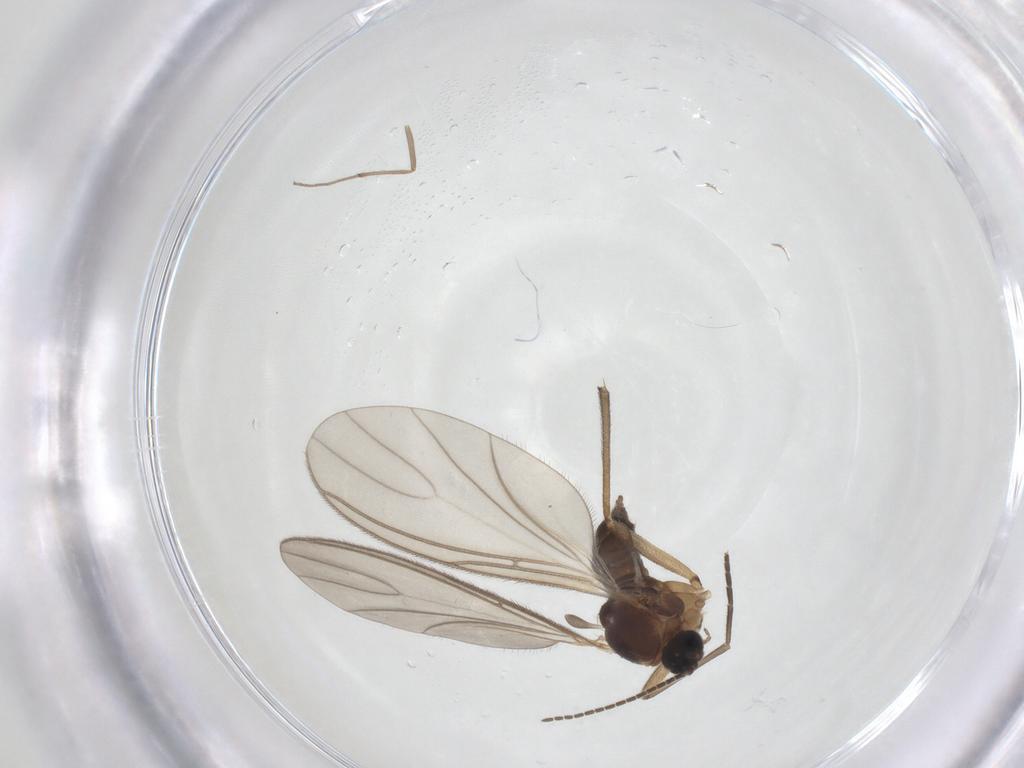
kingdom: Animalia
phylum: Arthropoda
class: Insecta
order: Diptera
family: Sciaridae
